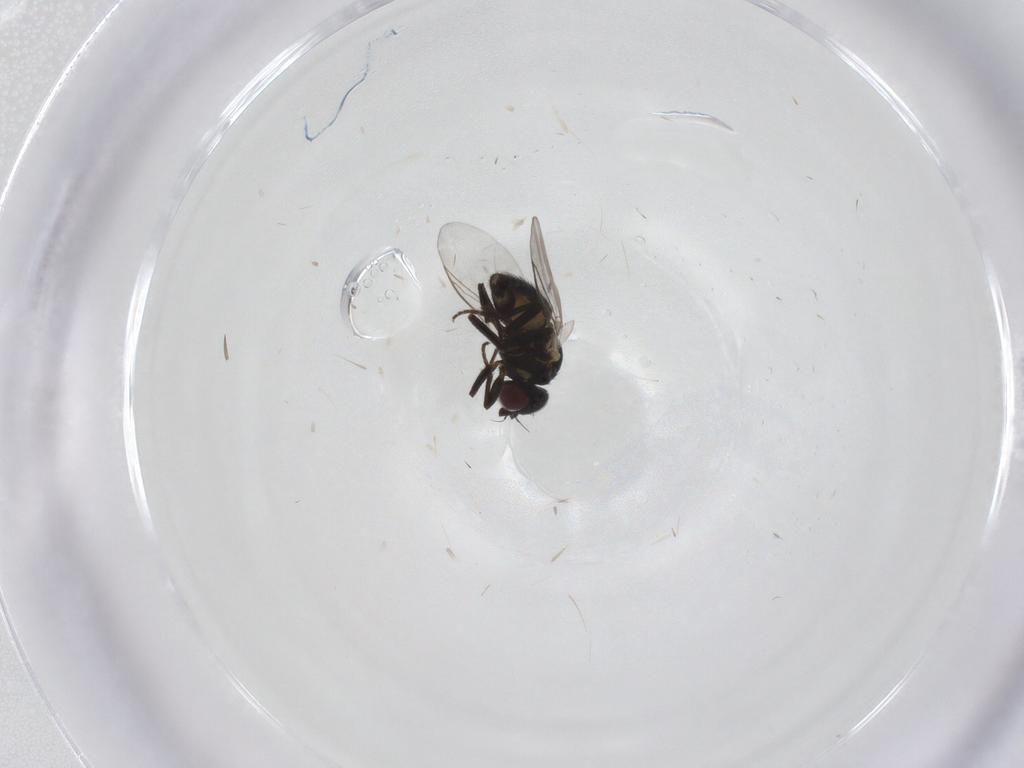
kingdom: Animalia
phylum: Arthropoda
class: Insecta
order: Diptera
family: Agromyzidae
